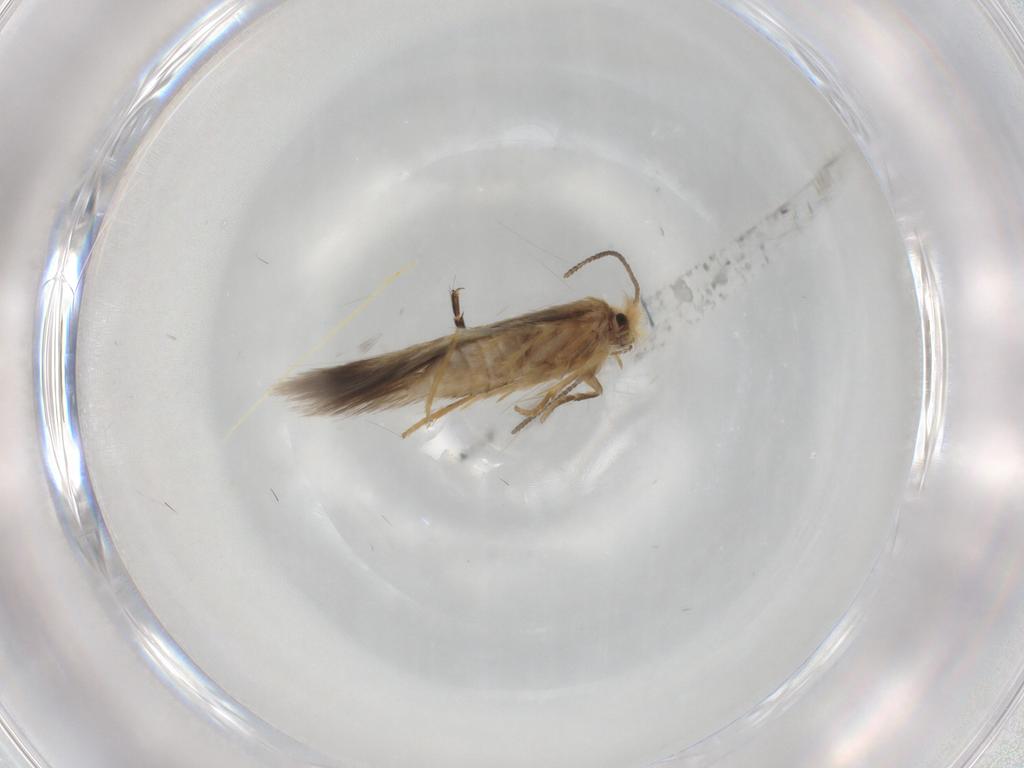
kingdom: Animalia
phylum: Arthropoda
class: Insecta
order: Lepidoptera
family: Nepticulidae
